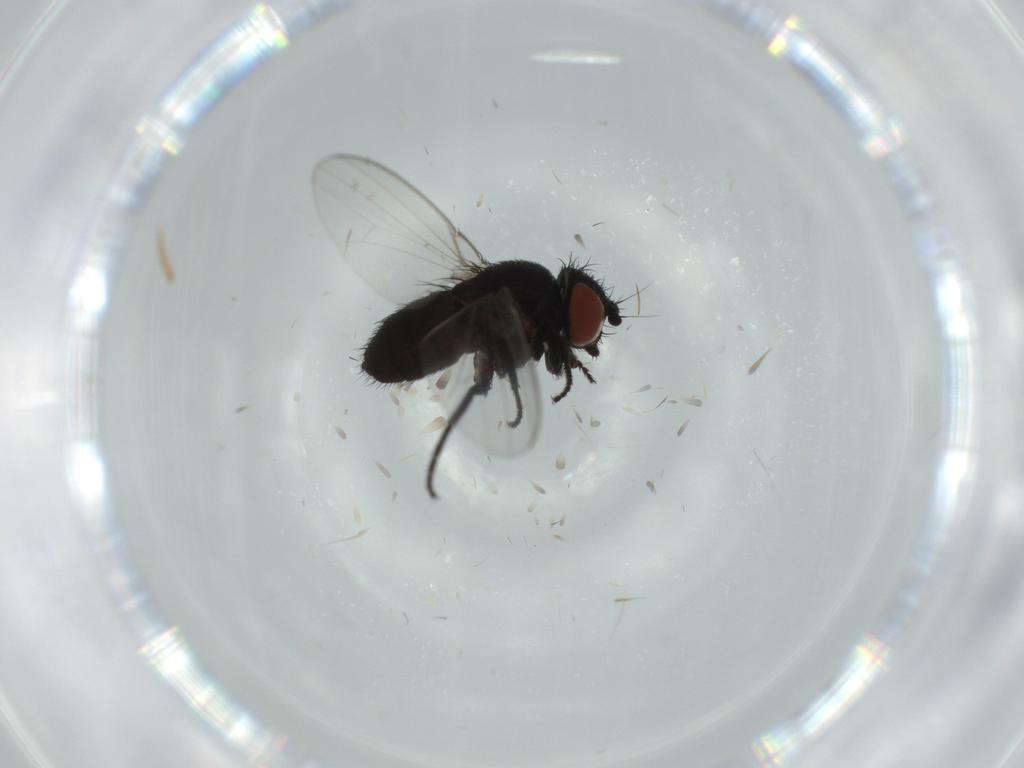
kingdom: Animalia
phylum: Arthropoda
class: Insecta
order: Diptera
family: Milichiidae
